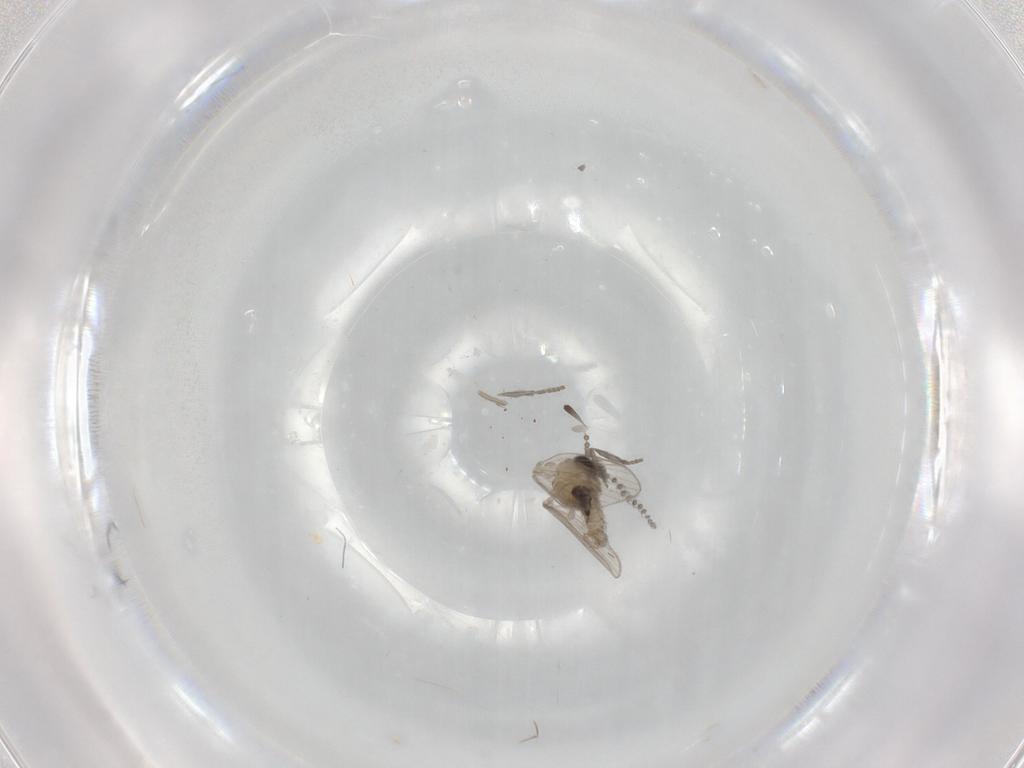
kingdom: Animalia
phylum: Arthropoda
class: Insecta
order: Diptera
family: Psychodidae
